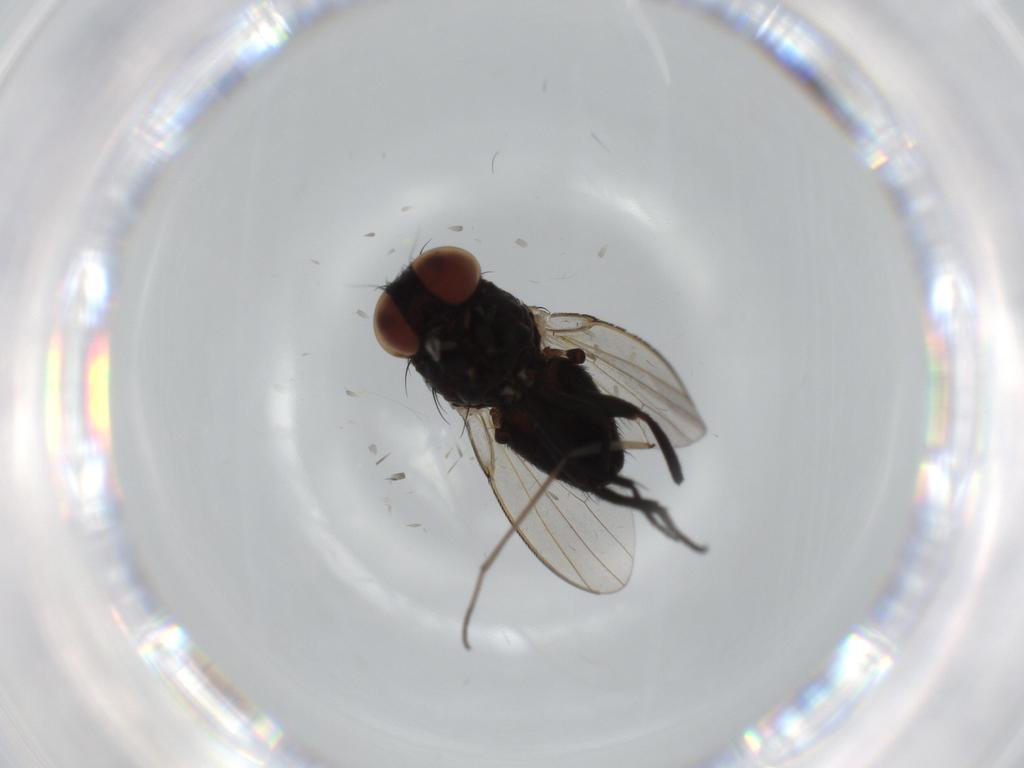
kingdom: Animalia
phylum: Arthropoda
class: Insecta
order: Diptera
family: Milichiidae
